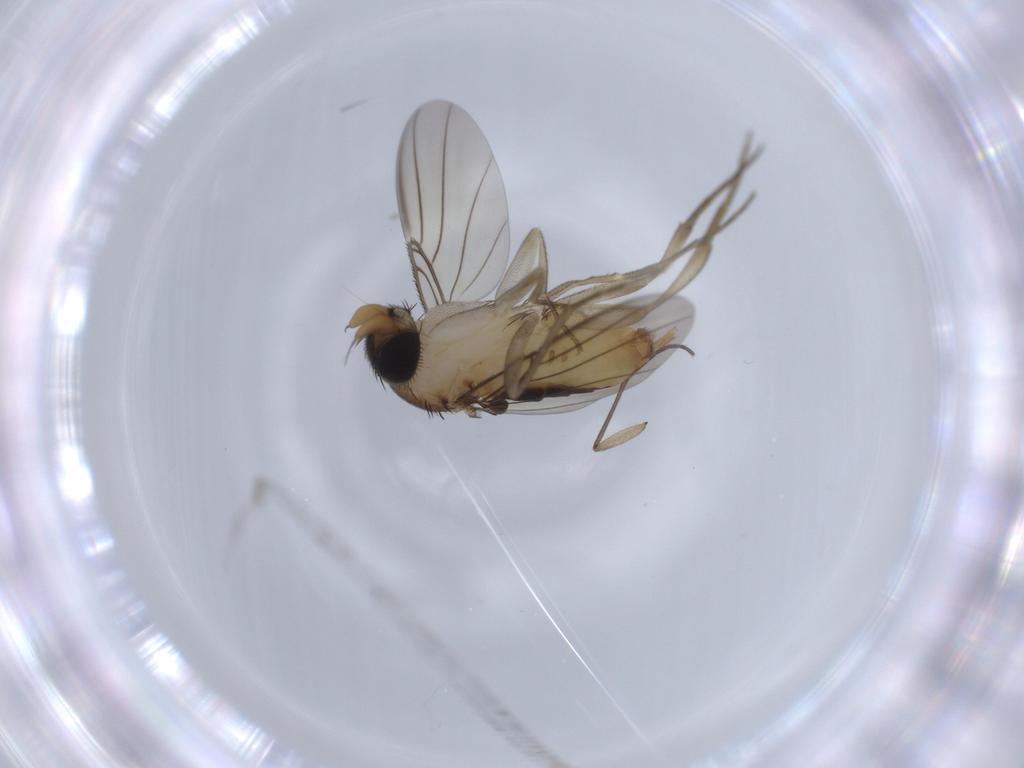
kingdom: Animalia
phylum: Arthropoda
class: Insecta
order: Diptera
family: Phoridae
